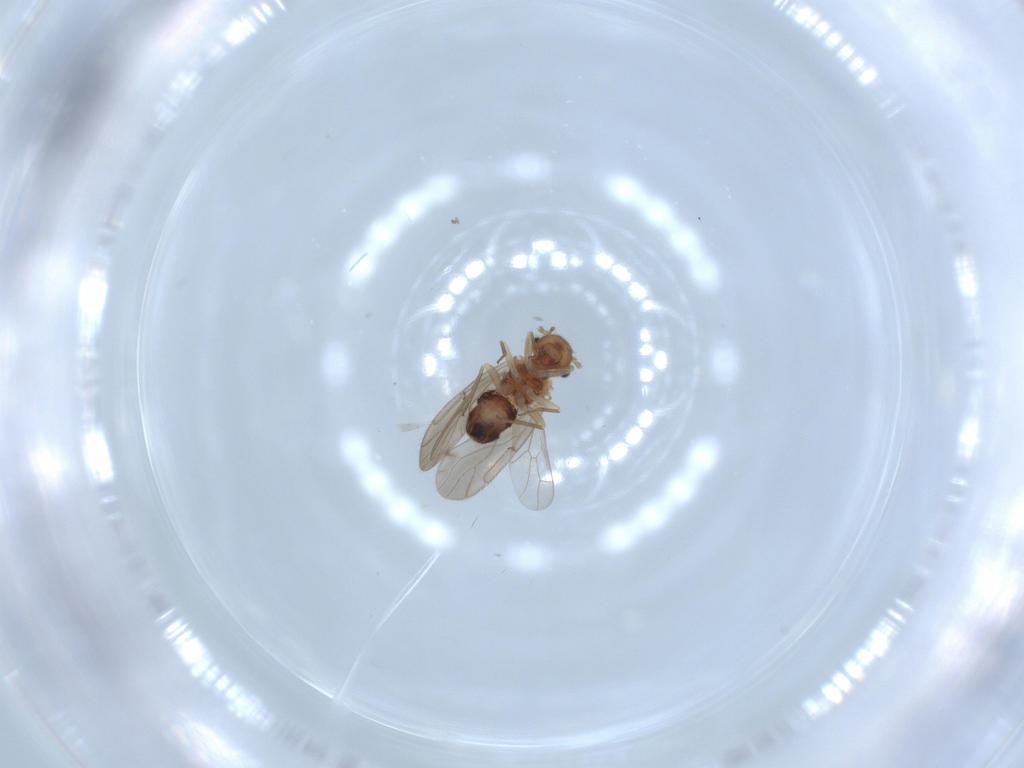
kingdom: Animalia
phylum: Arthropoda
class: Insecta
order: Psocodea
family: Ectopsocidae
